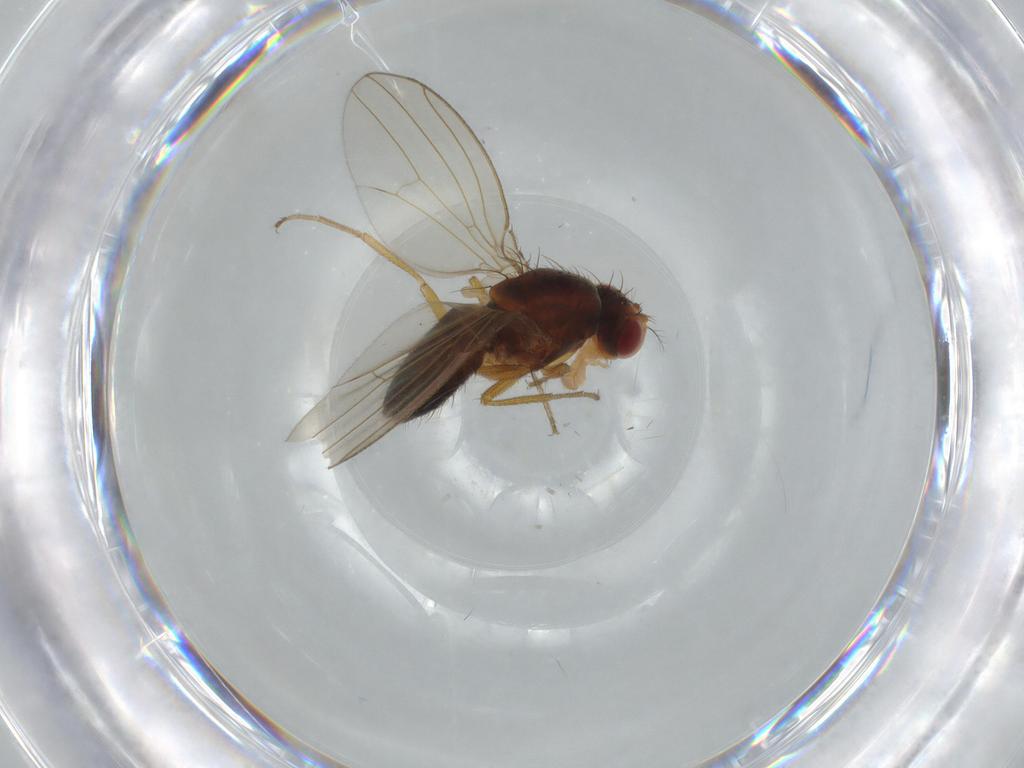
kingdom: Animalia
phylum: Arthropoda
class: Insecta
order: Diptera
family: Drosophilidae
